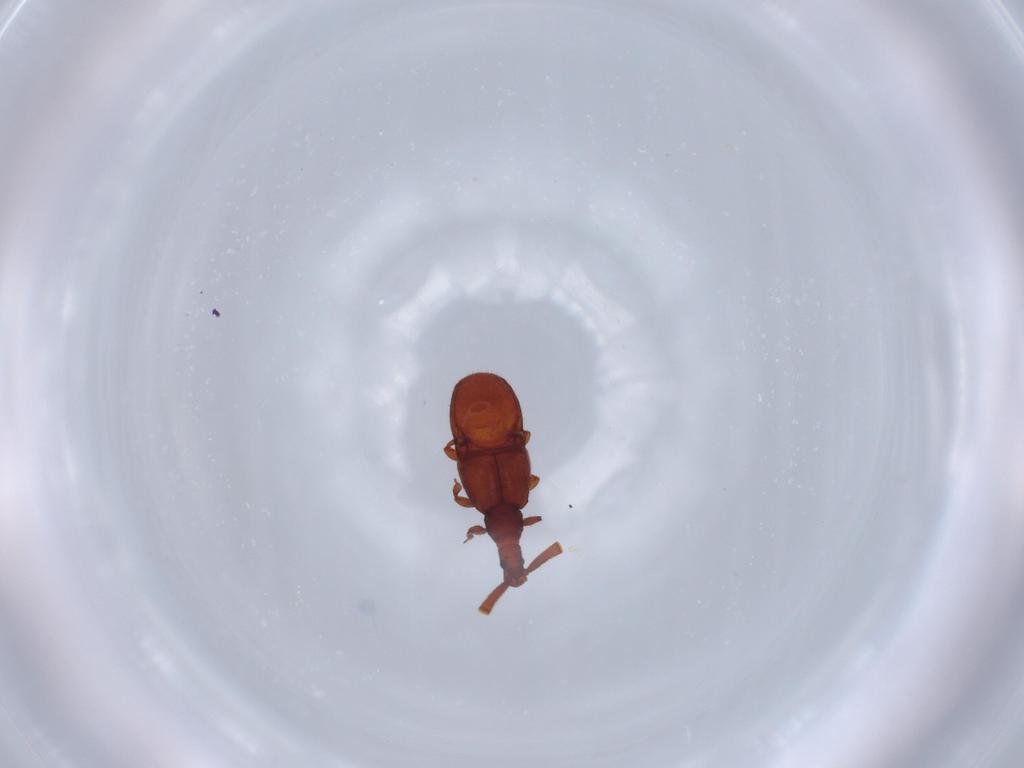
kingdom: Animalia
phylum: Arthropoda
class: Insecta
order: Coleoptera
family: Staphylinidae
